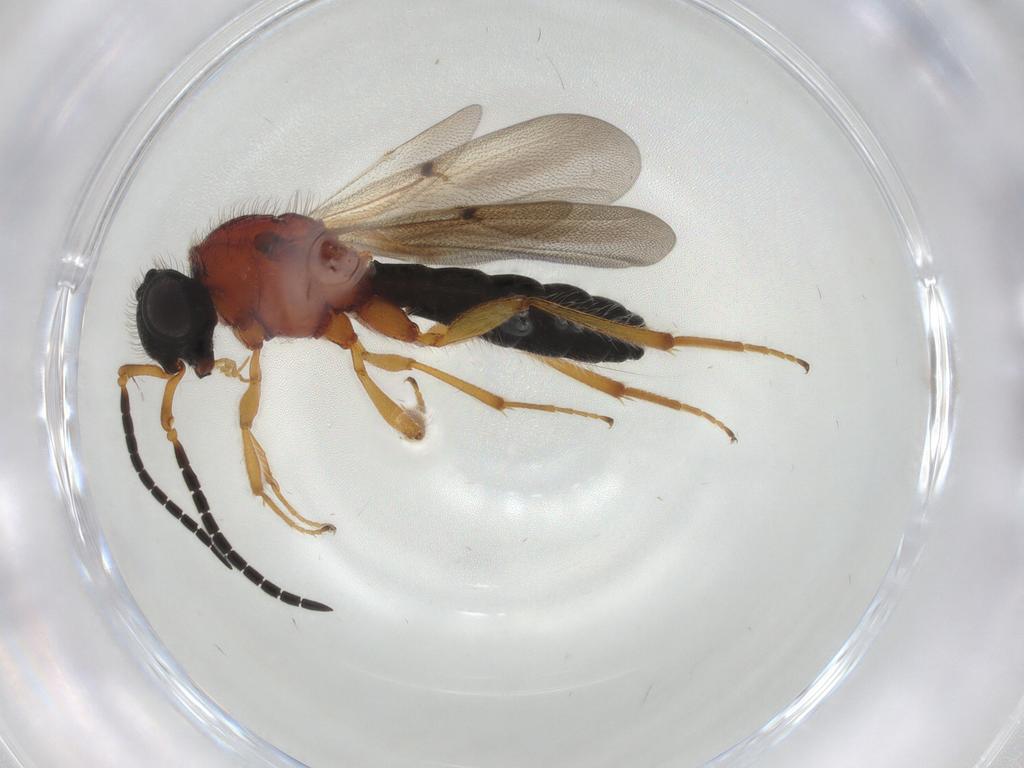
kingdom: Animalia
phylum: Arthropoda
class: Insecta
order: Hymenoptera
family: Scelionidae
